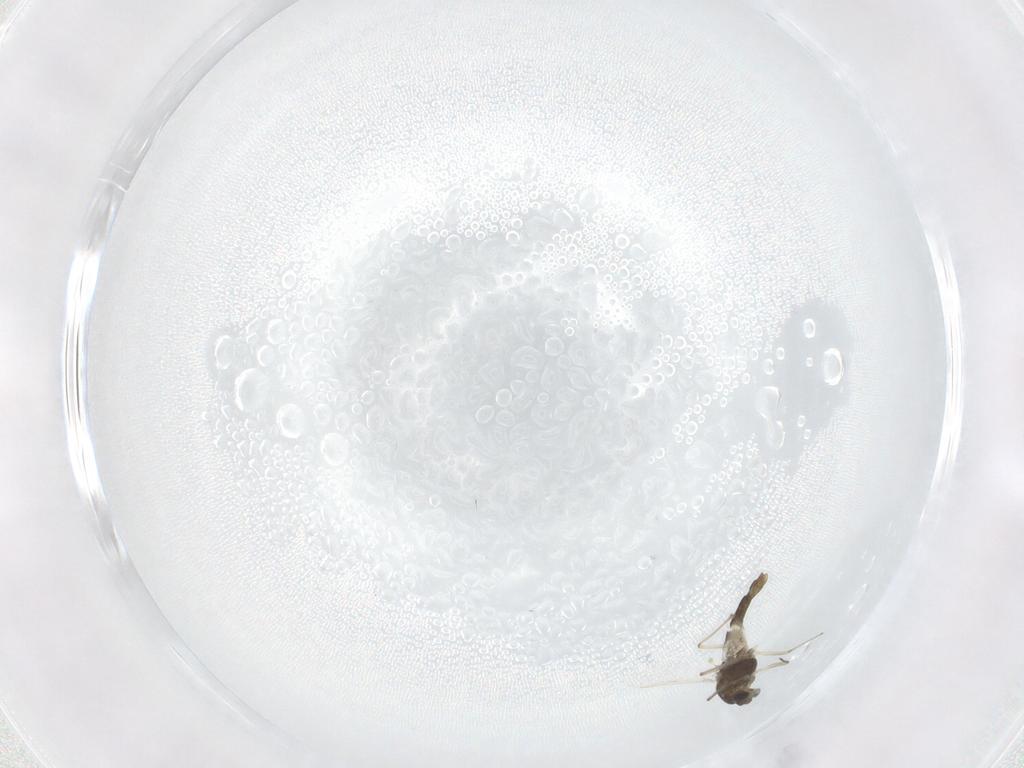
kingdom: Animalia
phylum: Arthropoda
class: Insecta
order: Diptera
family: Chironomidae
